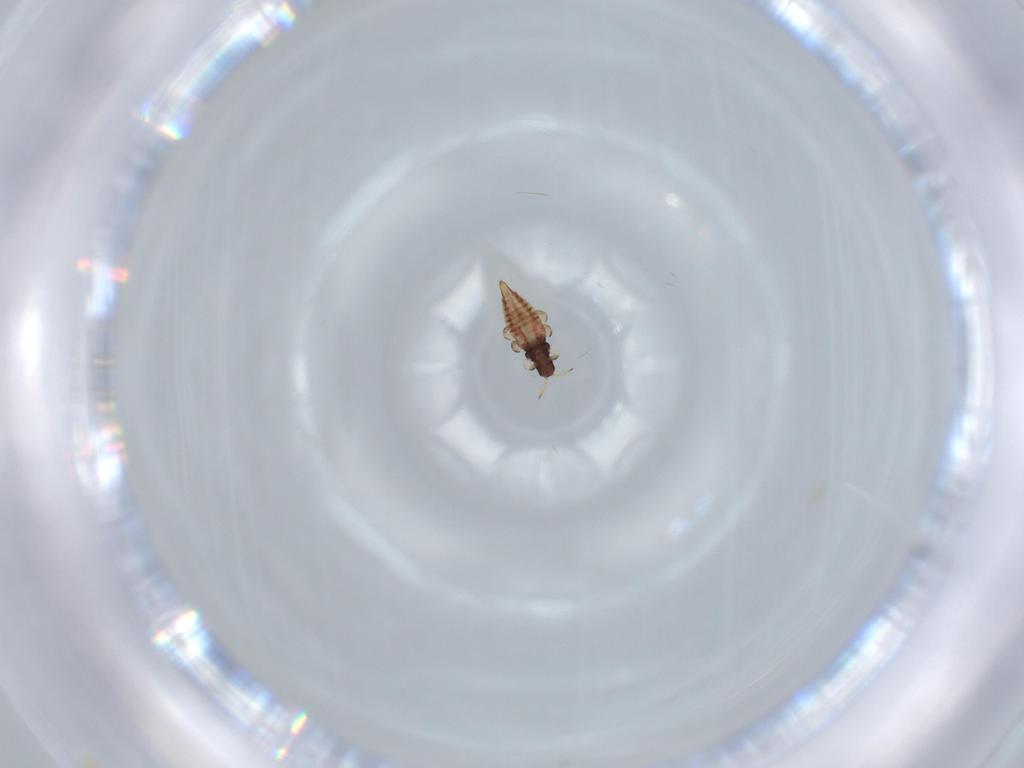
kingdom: Animalia
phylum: Arthropoda
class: Insecta
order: Thysanoptera
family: Phlaeothripidae
